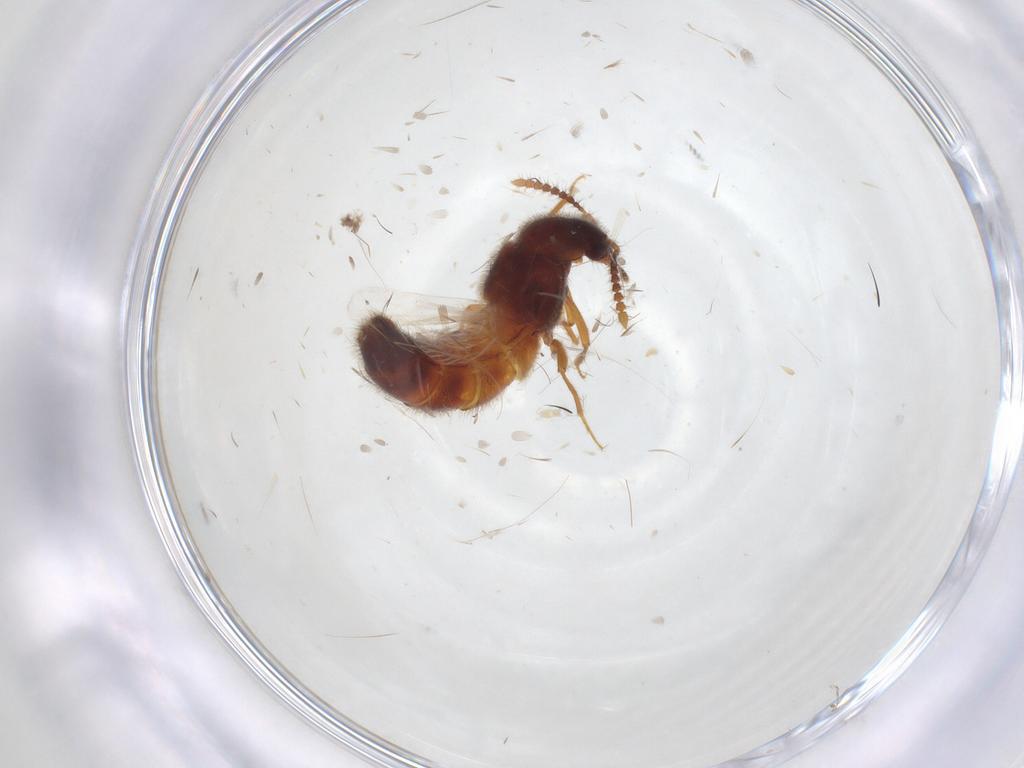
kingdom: Animalia
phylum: Arthropoda
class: Insecta
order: Coleoptera
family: Staphylinidae
